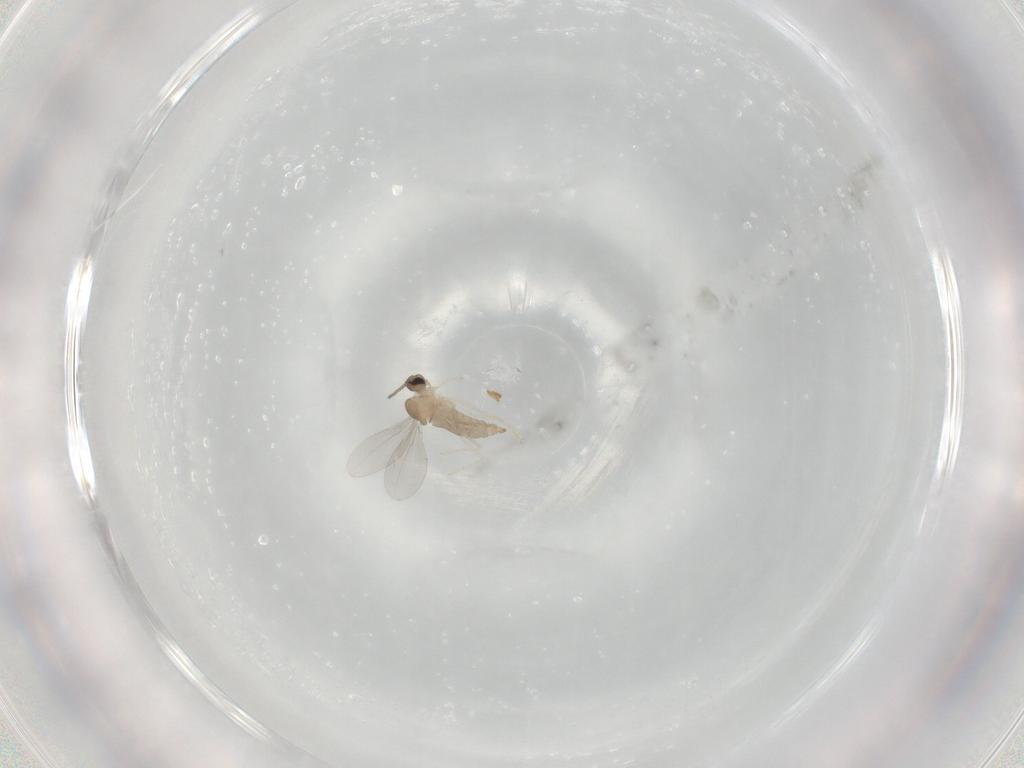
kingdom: Animalia
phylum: Arthropoda
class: Insecta
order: Diptera
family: Cecidomyiidae
